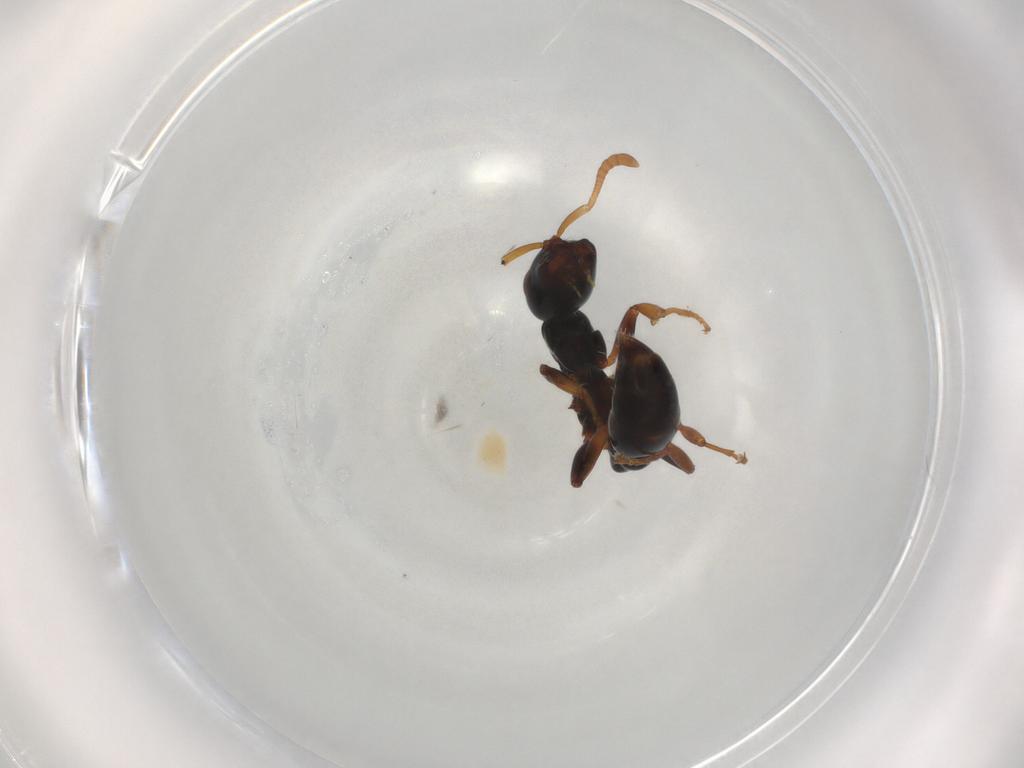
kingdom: Animalia
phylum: Arthropoda
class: Insecta
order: Hymenoptera
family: Formicidae
